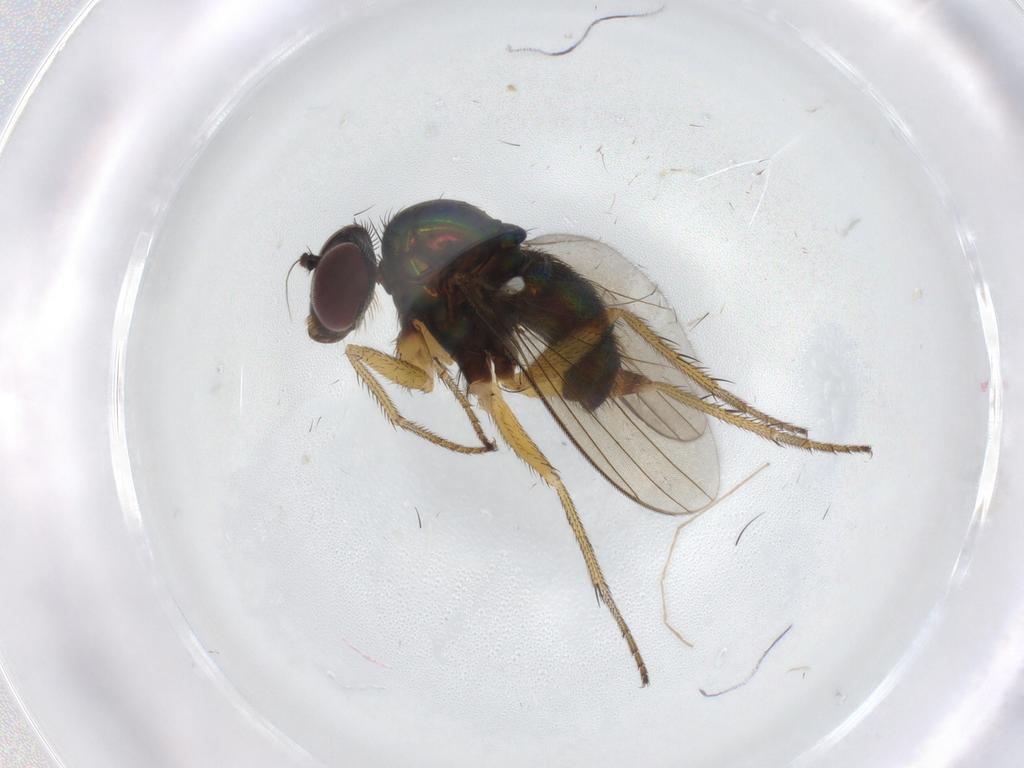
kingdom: Animalia
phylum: Arthropoda
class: Insecta
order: Diptera
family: Dolichopodidae
